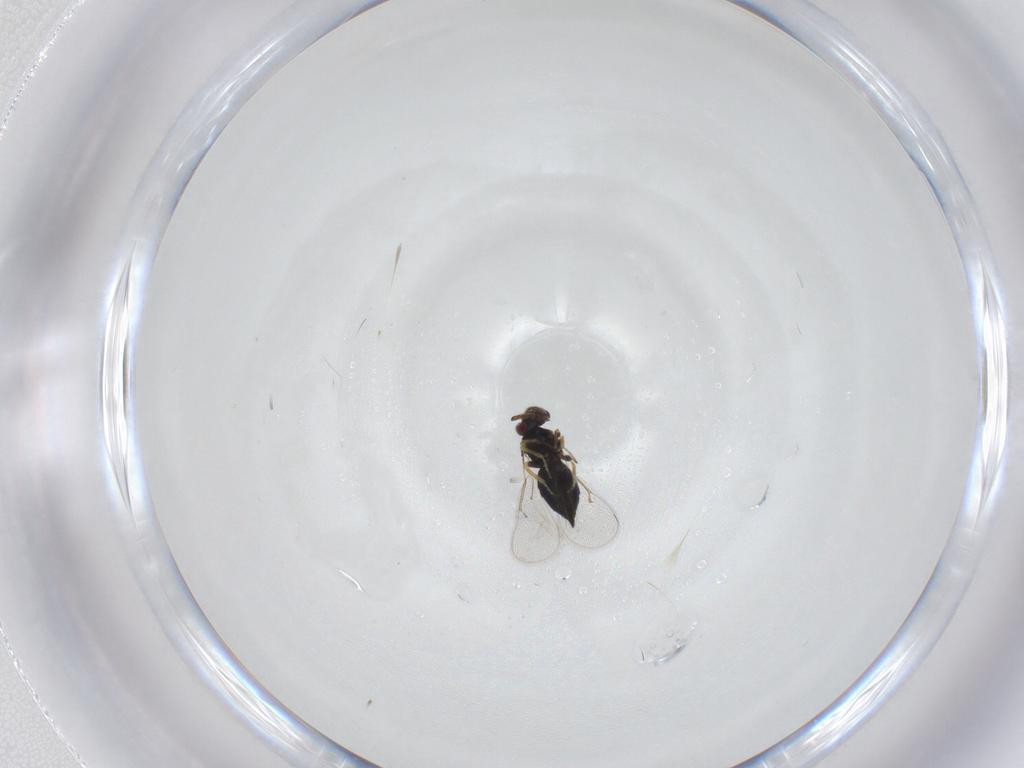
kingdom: Animalia
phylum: Arthropoda
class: Insecta
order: Hymenoptera
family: Eulophidae
